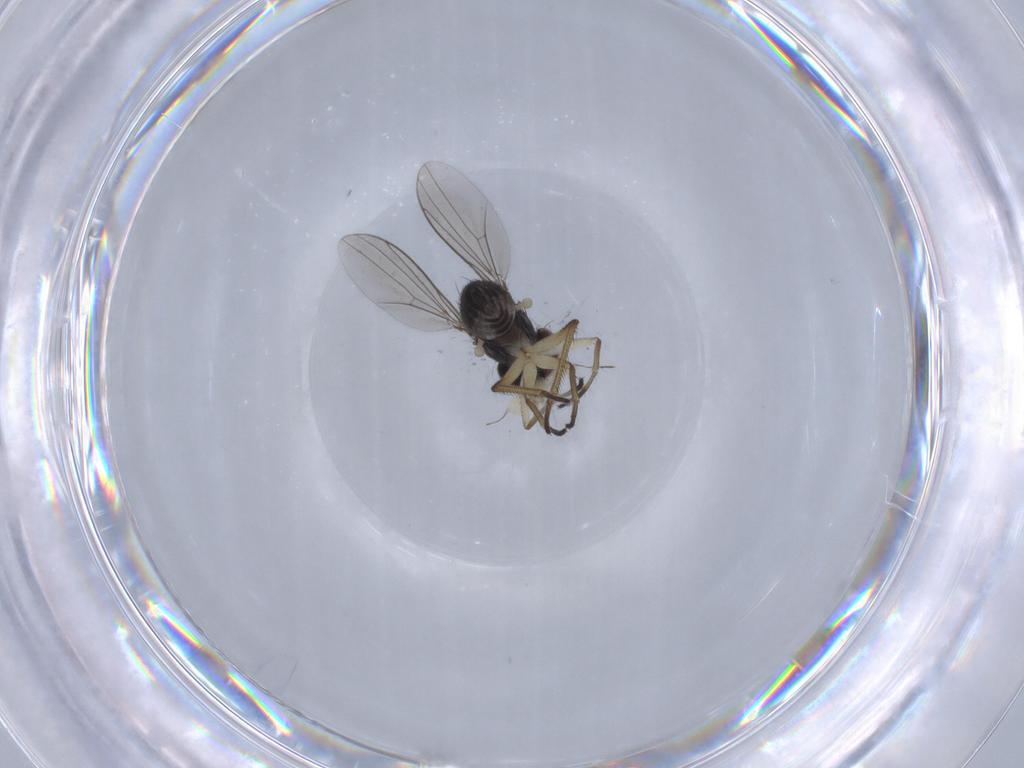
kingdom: Animalia
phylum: Arthropoda
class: Insecta
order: Diptera
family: Dolichopodidae
